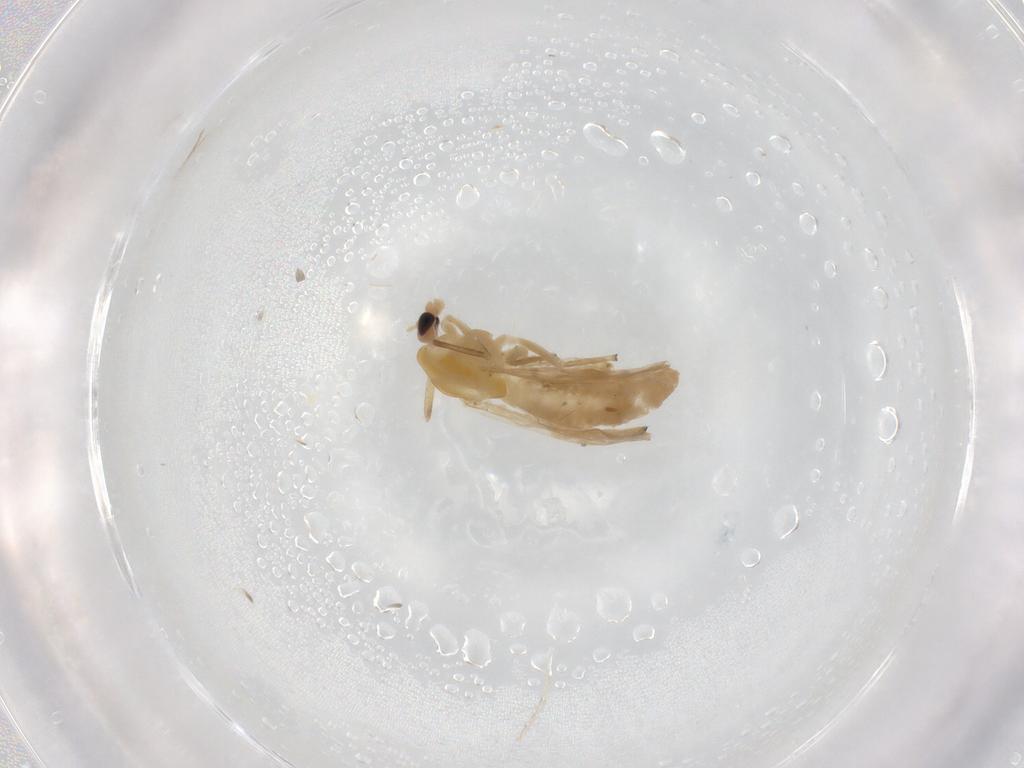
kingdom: Animalia
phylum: Arthropoda
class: Insecta
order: Diptera
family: Chironomidae
